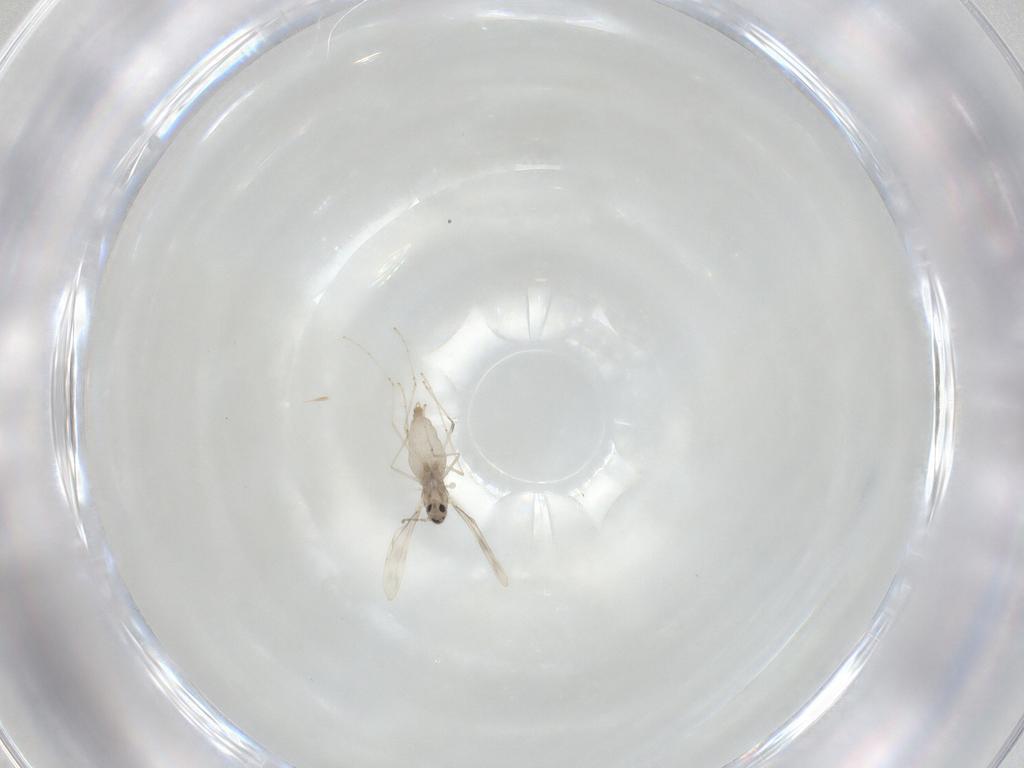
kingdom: Animalia
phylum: Arthropoda
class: Insecta
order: Diptera
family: Cecidomyiidae
